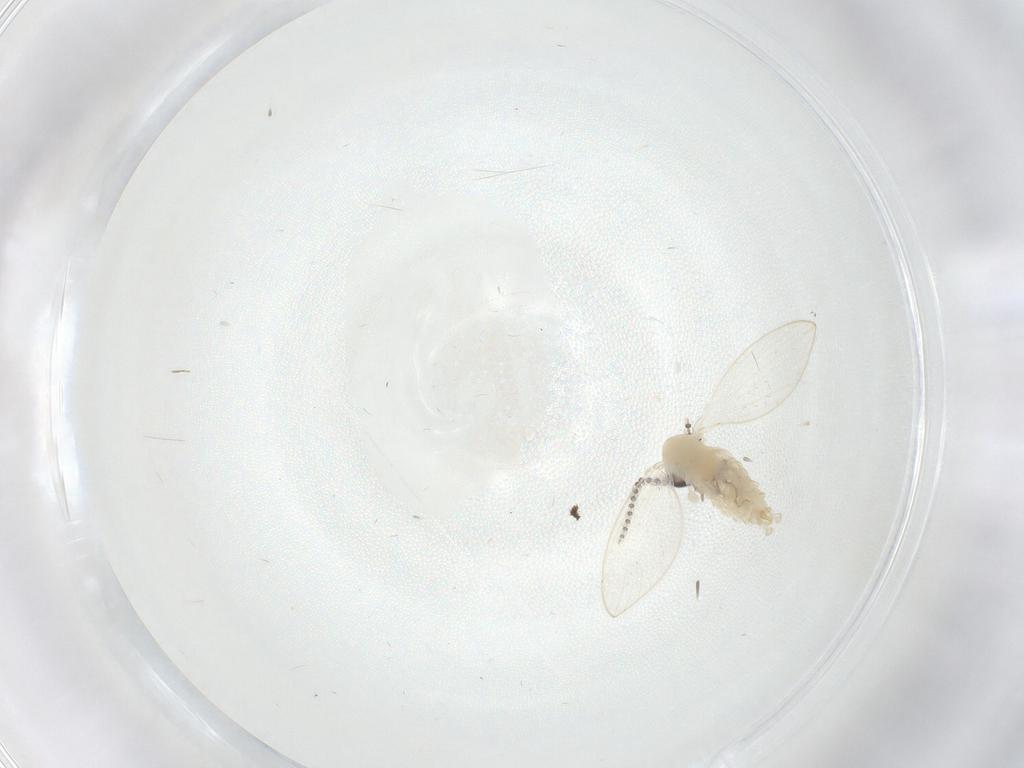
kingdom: Animalia
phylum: Arthropoda
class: Insecta
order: Diptera
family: Psychodidae
